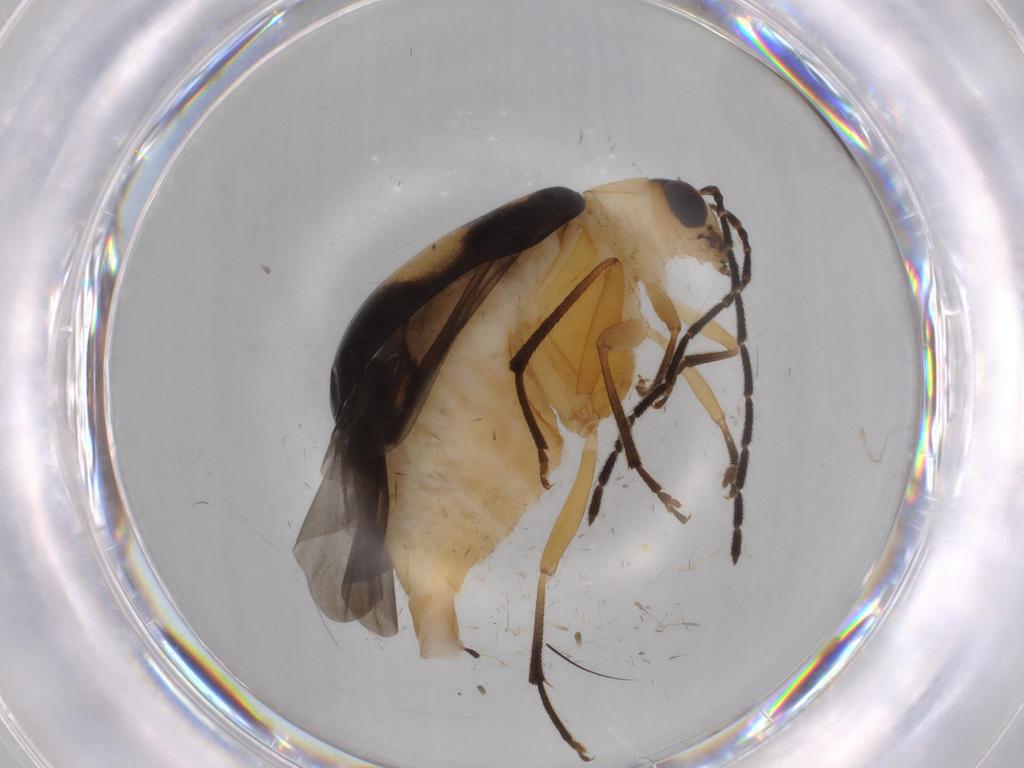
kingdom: Animalia
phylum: Arthropoda
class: Insecta
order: Coleoptera
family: Chrysomelidae
